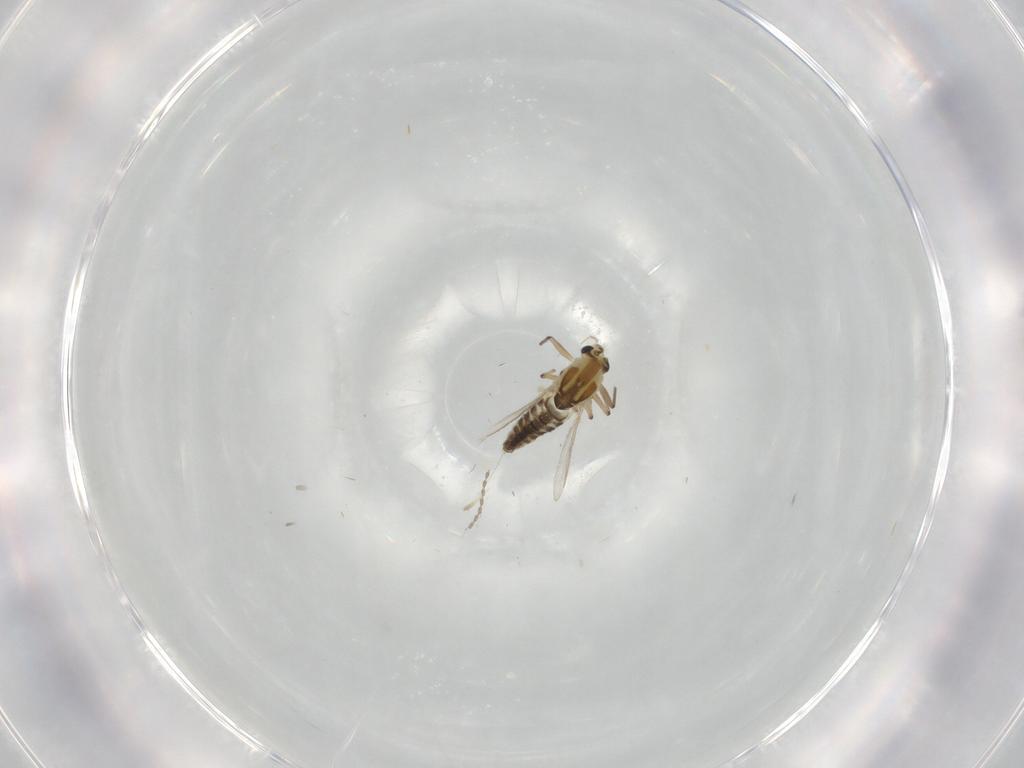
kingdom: Animalia
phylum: Arthropoda
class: Insecta
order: Diptera
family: Chironomidae
